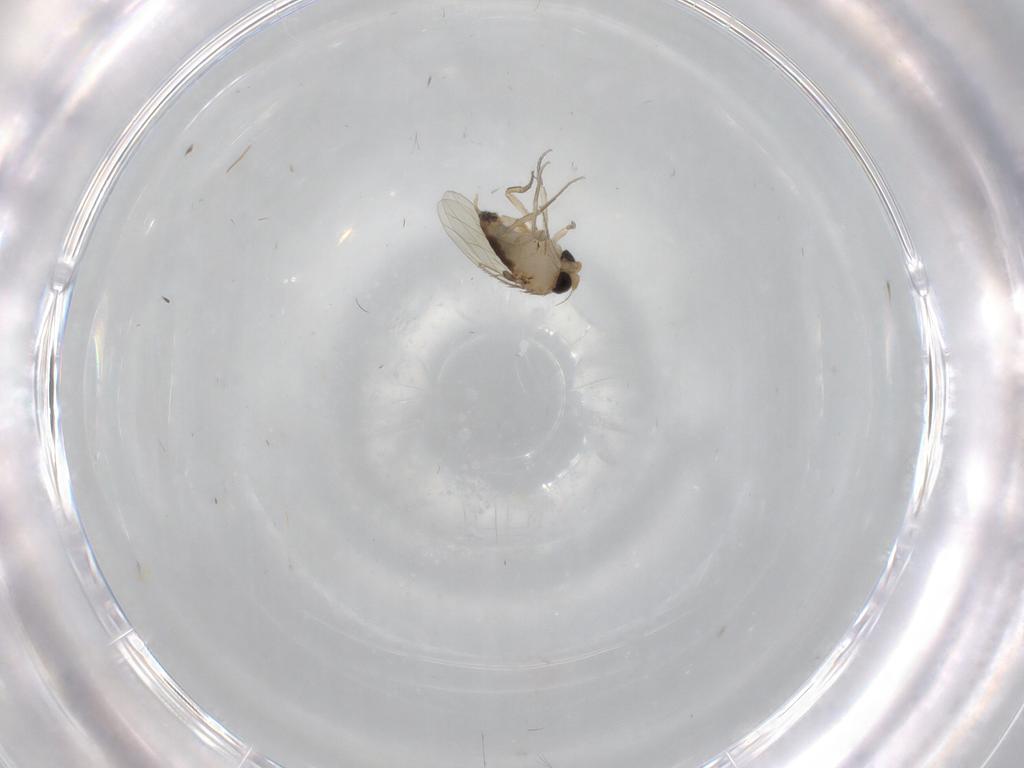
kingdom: Animalia
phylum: Arthropoda
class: Insecta
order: Diptera
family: Phoridae
